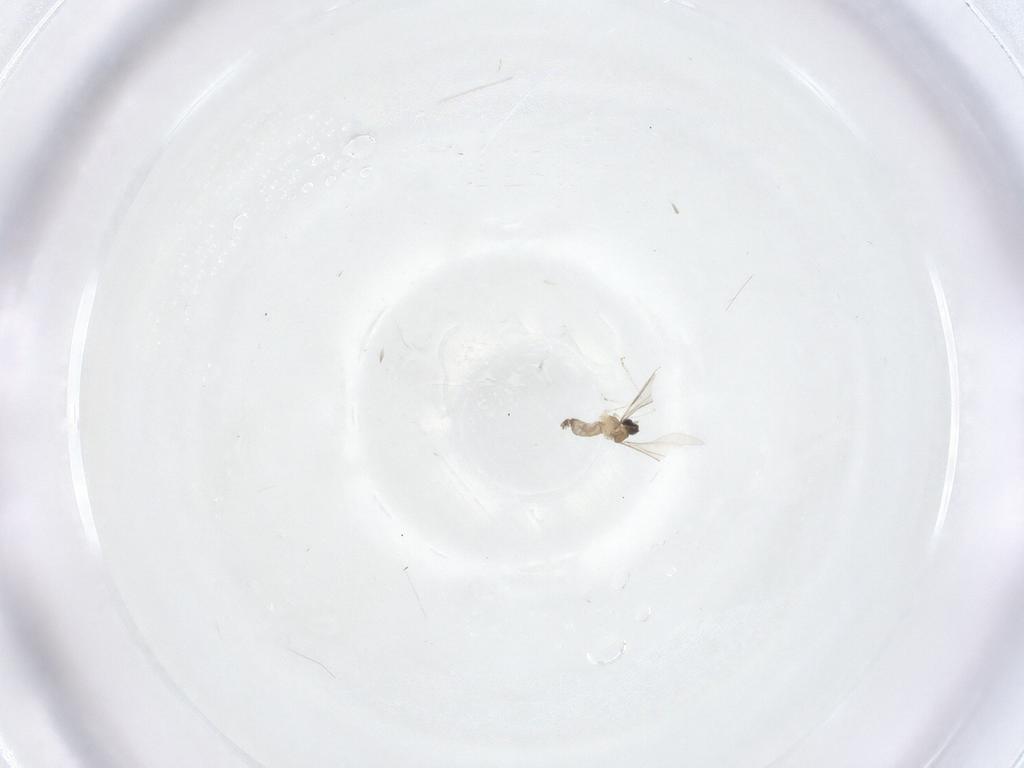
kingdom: Animalia
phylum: Arthropoda
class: Insecta
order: Diptera
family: Cecidomyiidae
